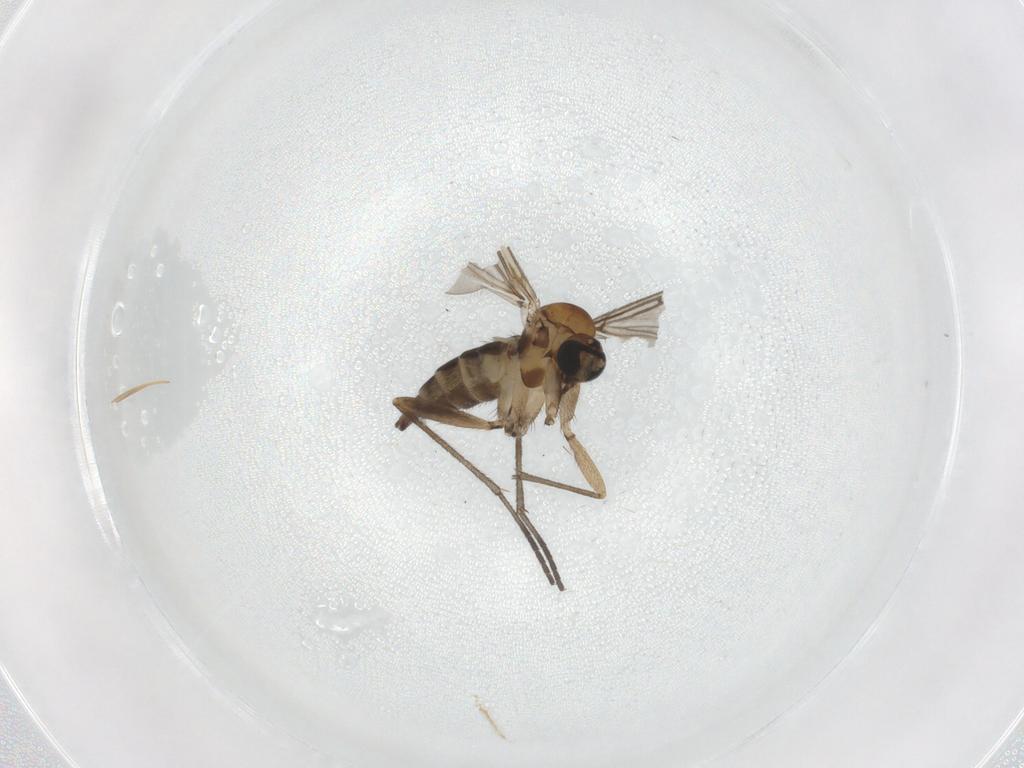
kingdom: Animalia
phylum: Arthropoda
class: Insecta
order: Diptera
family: Sciaridae
